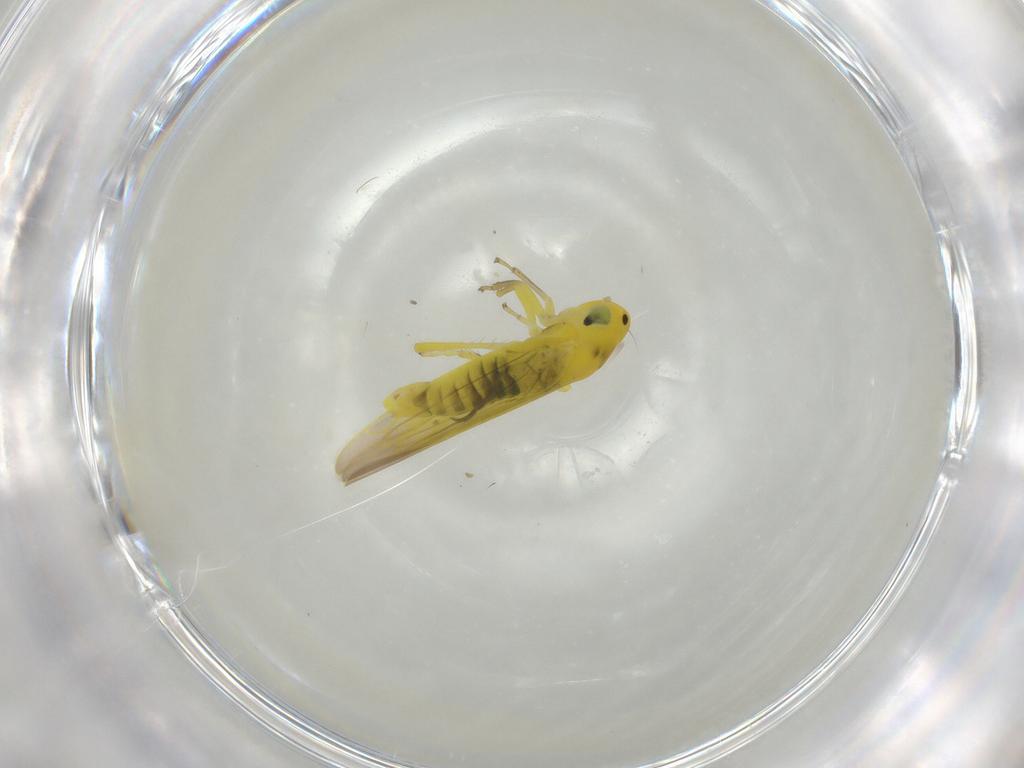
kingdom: Animalia
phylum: Arthropoda
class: Insecta
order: Hemiptera
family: Cicadellidae
